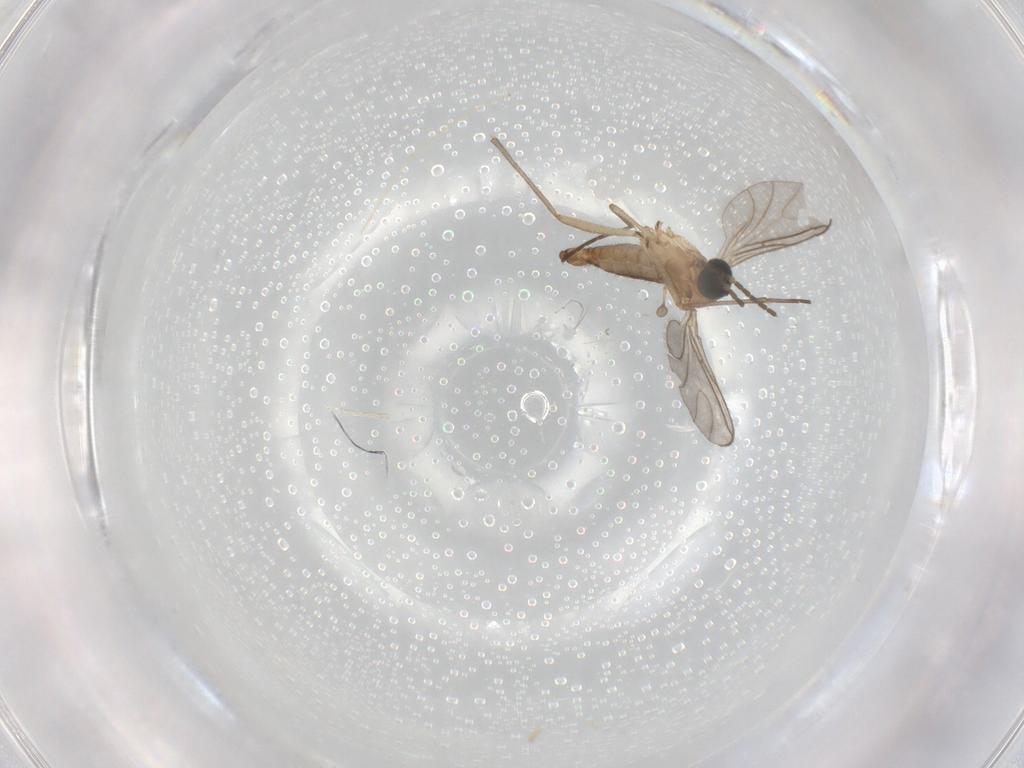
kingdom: Animalia
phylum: Arthropoda
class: Insecta
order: Diptera
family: Sciaridae
